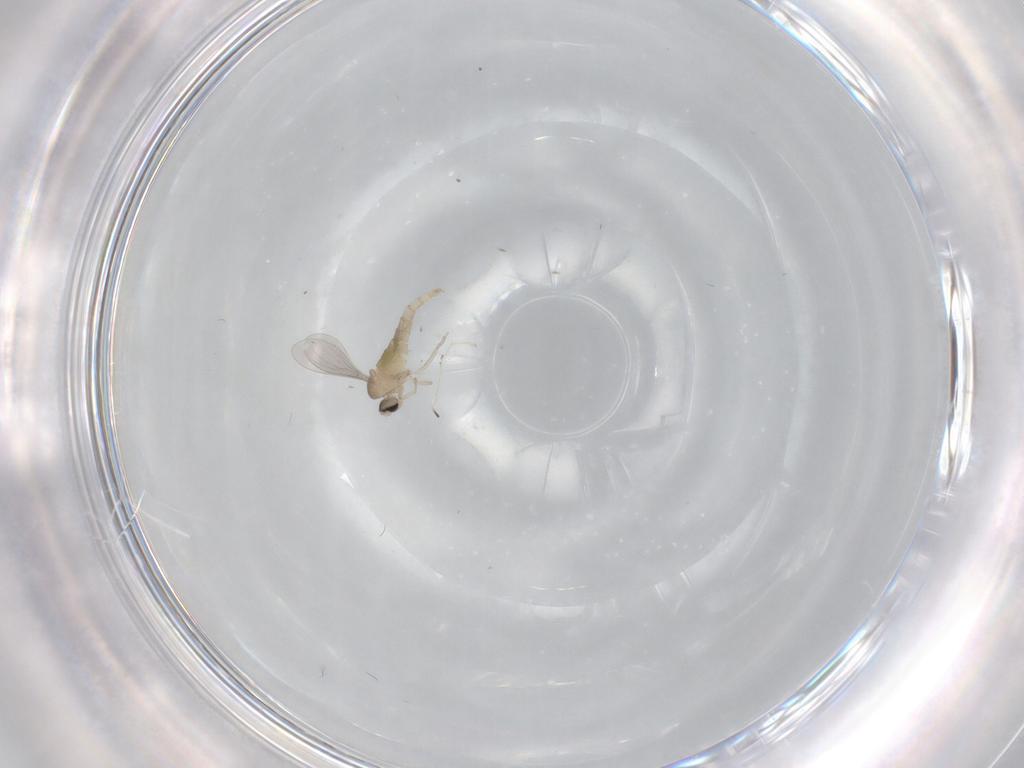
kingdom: Animalia
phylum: Arthropoda
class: Insecta
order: Diptera
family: Cecidomyiidae
